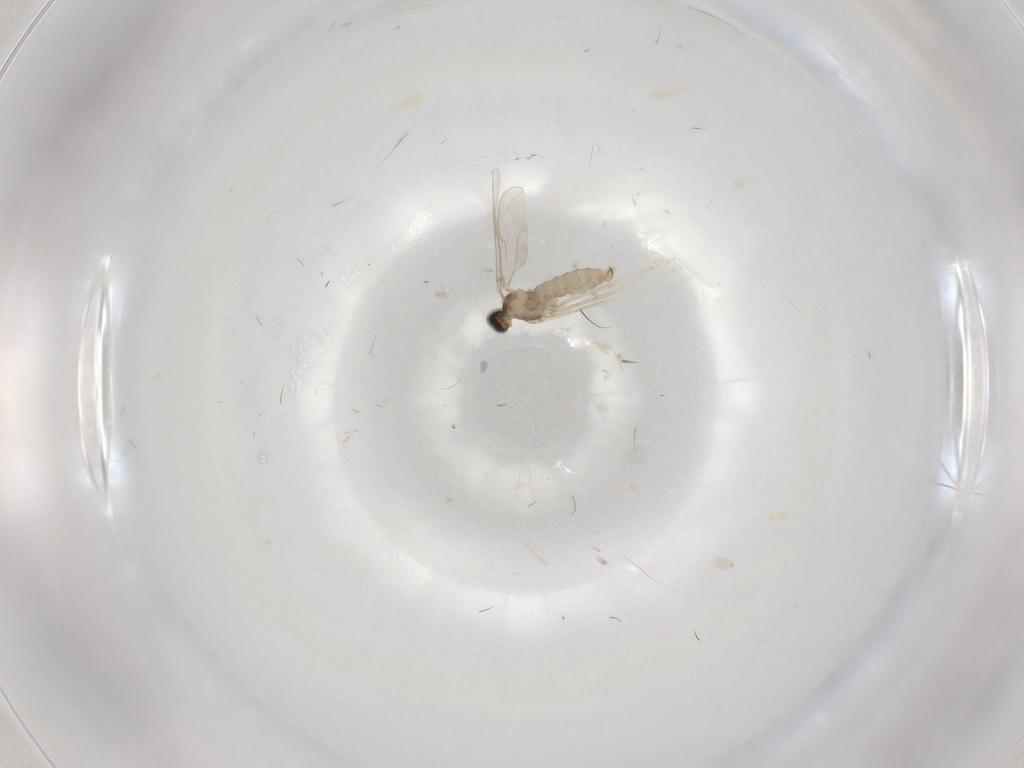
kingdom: Animalia
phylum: Arthropoda
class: Insecta
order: Diptera
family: Cecidomyiidae
